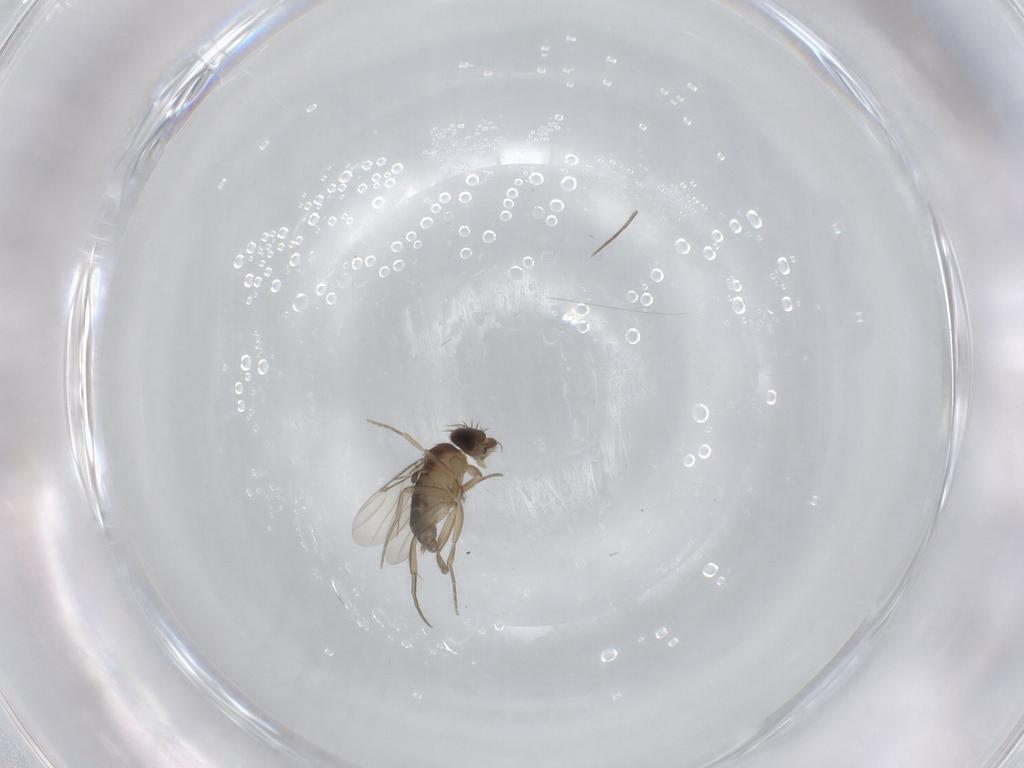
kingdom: Animalia
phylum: Arthropoda
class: Insecta
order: Diptera
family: Phoridae
